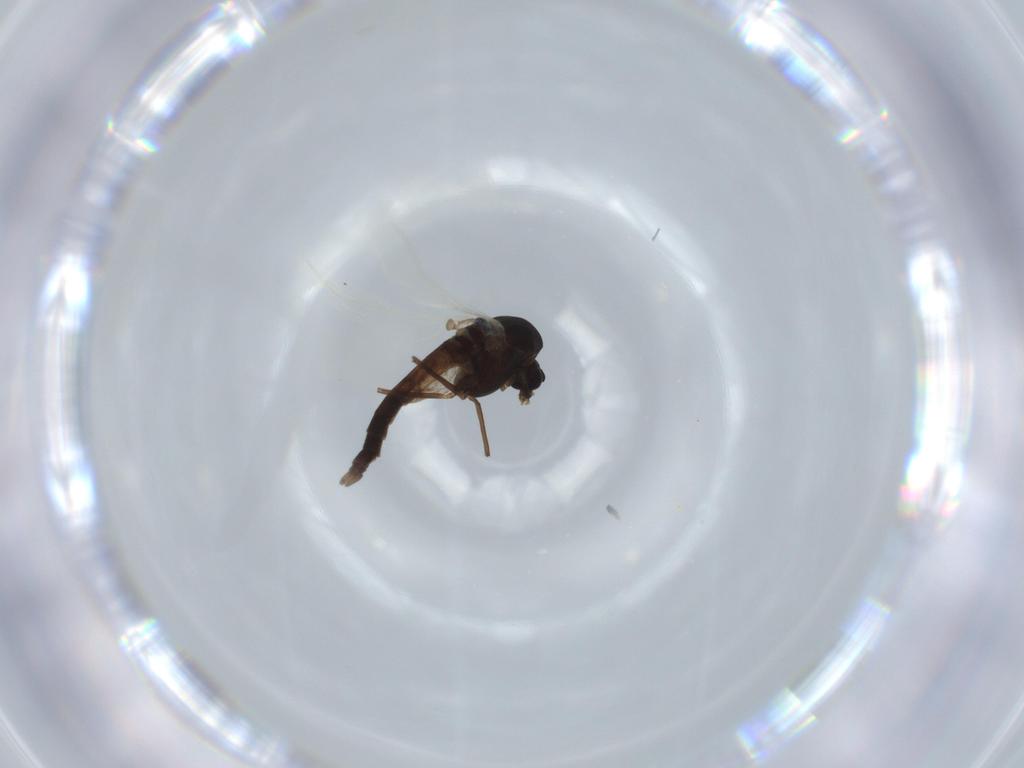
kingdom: Animalia
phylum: Arthropoda
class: Insecta
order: Diptera
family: Chironomidae
